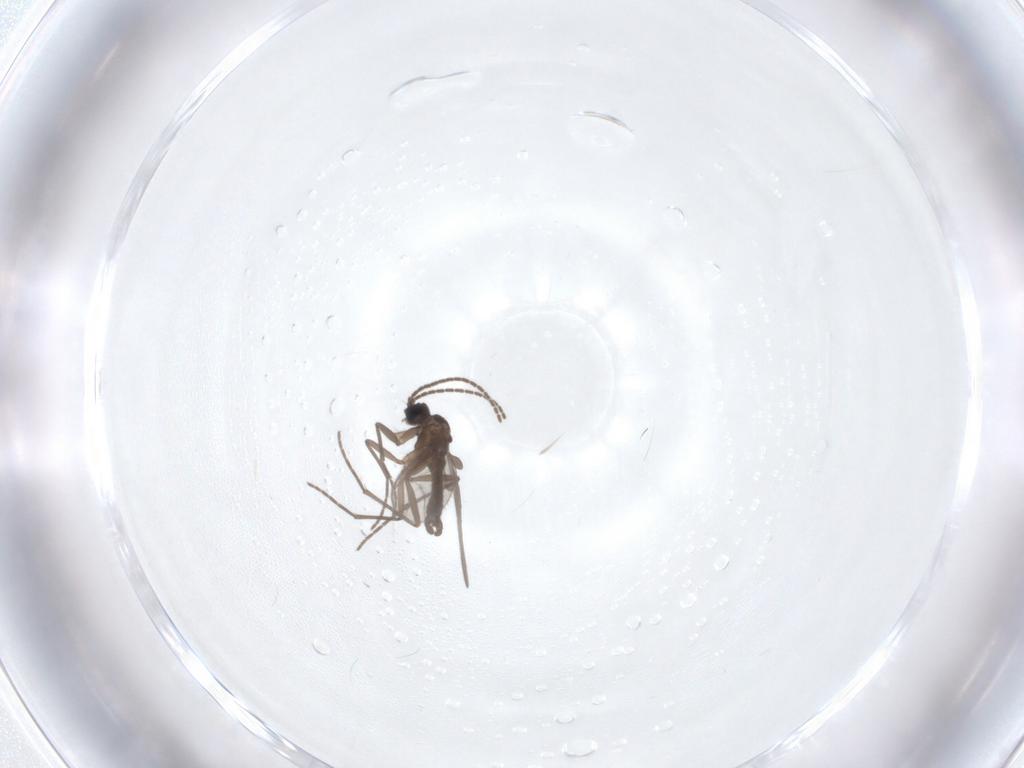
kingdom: Animalia
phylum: Arthropoda
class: Insecta
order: Diptera
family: Chironomidae
